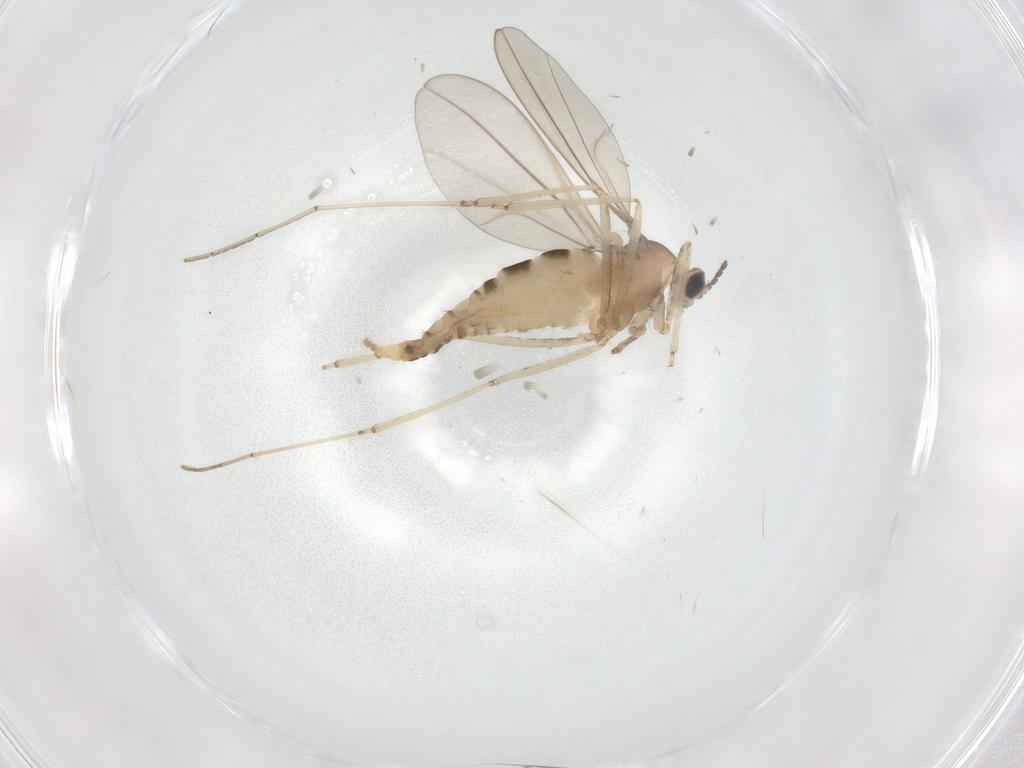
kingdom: Animalia
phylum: Arthropoda
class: Insecta
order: Diptera
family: Cecidomyiidae
